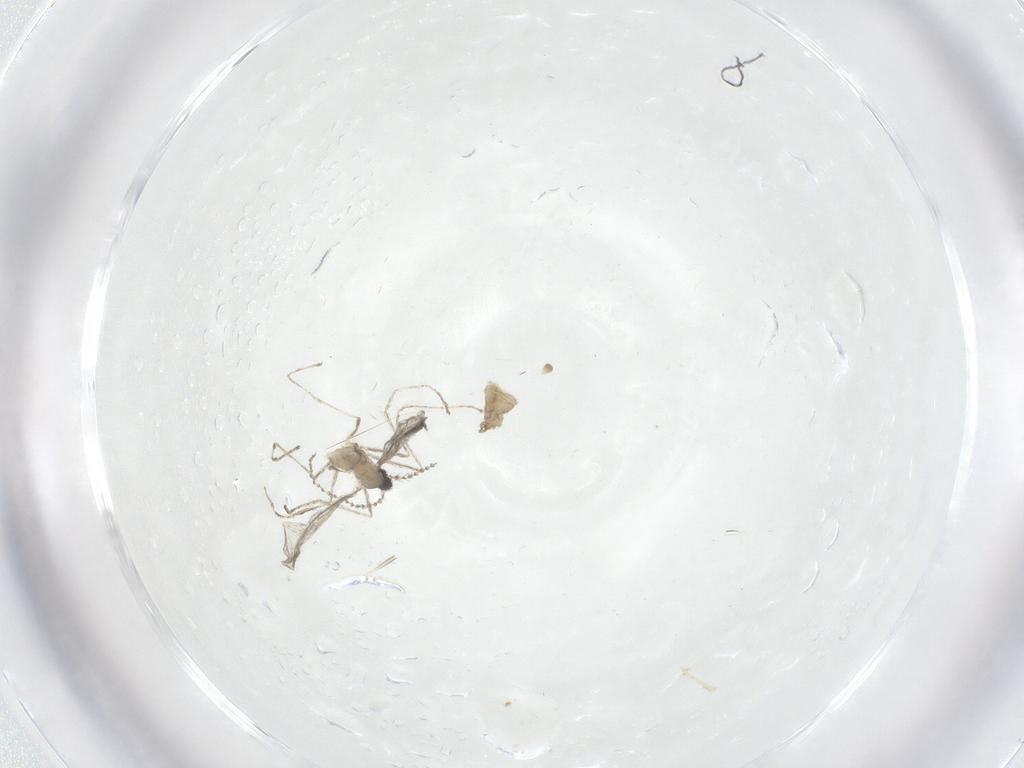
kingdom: Animalia
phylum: Arthropoda
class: Insecta
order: Diptera
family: Cecidomyiidae
